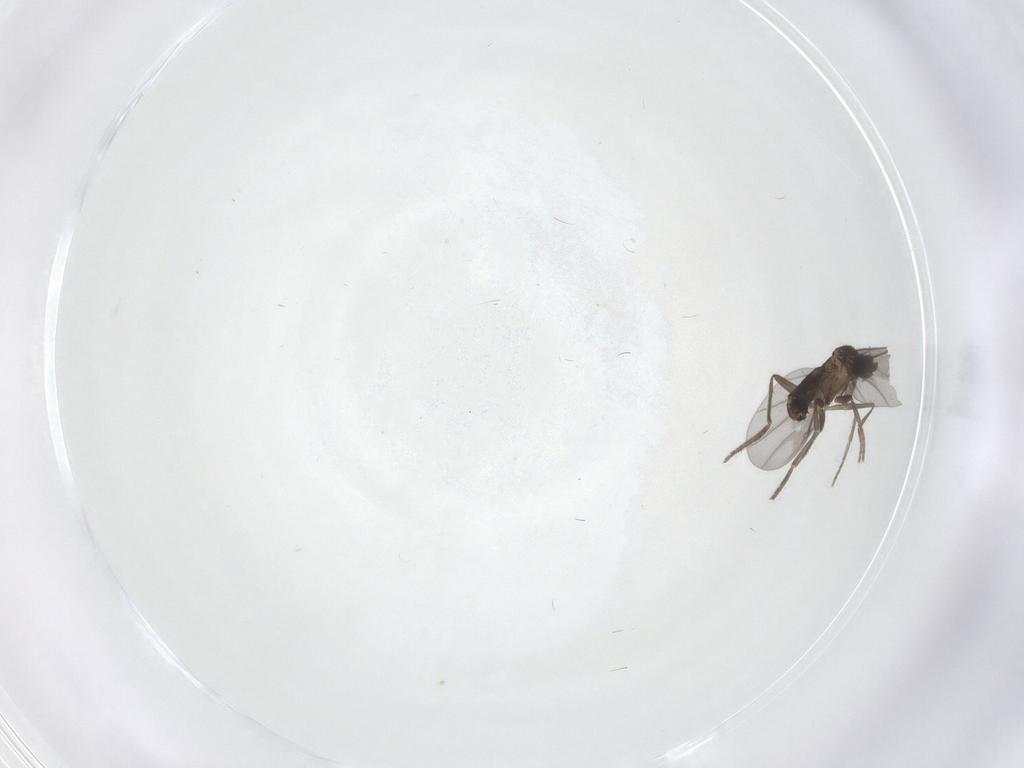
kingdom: Animalia
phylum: Arthropoda
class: Insecta
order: Diptera
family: Phoridae
